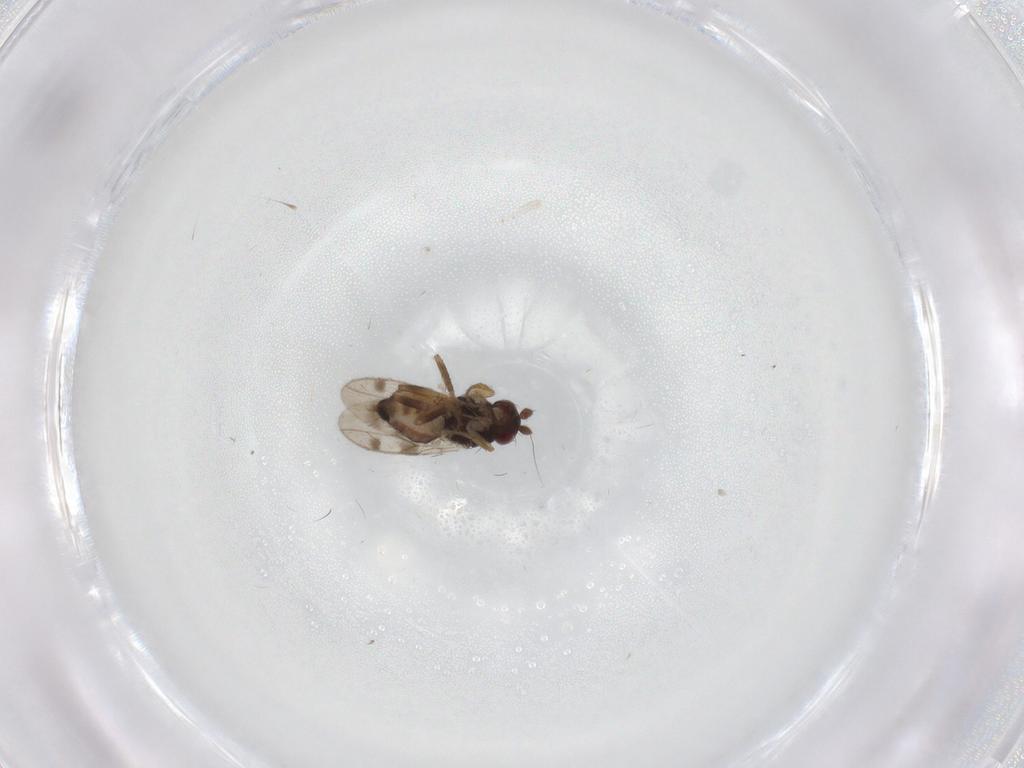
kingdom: Animalia
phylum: Arthropoda
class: Insecta
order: Diptera
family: Sphaeroceridae
